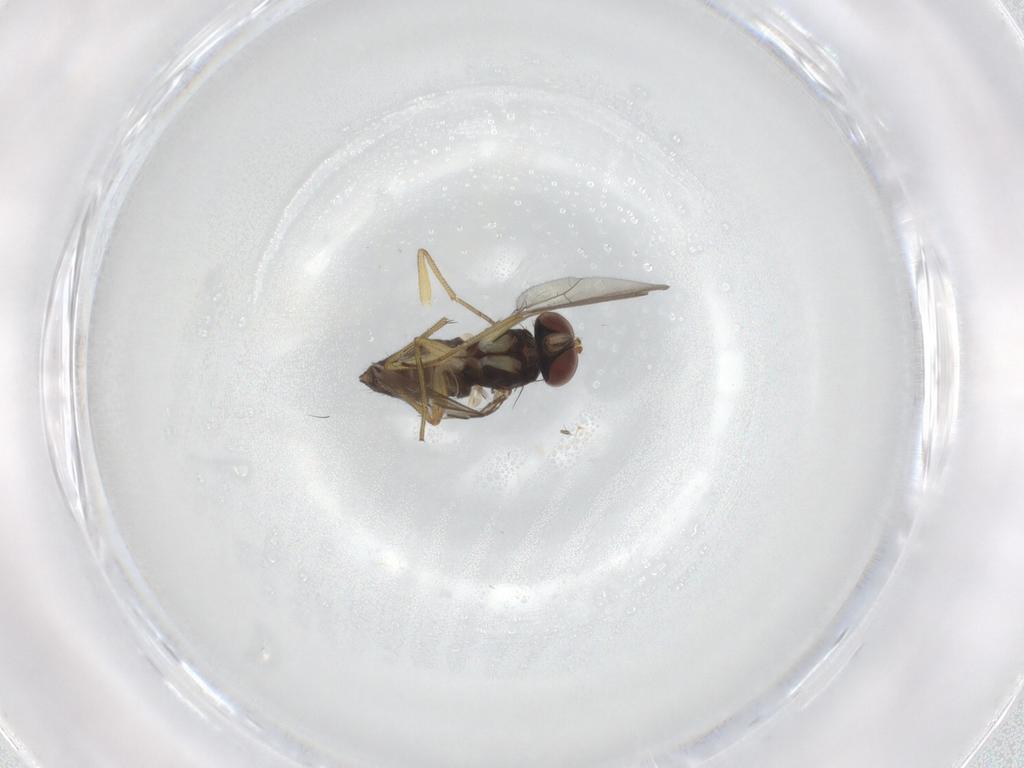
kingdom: Animalia
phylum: Arthropoda
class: Insecta
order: Diptera
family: Dolichopodidae
